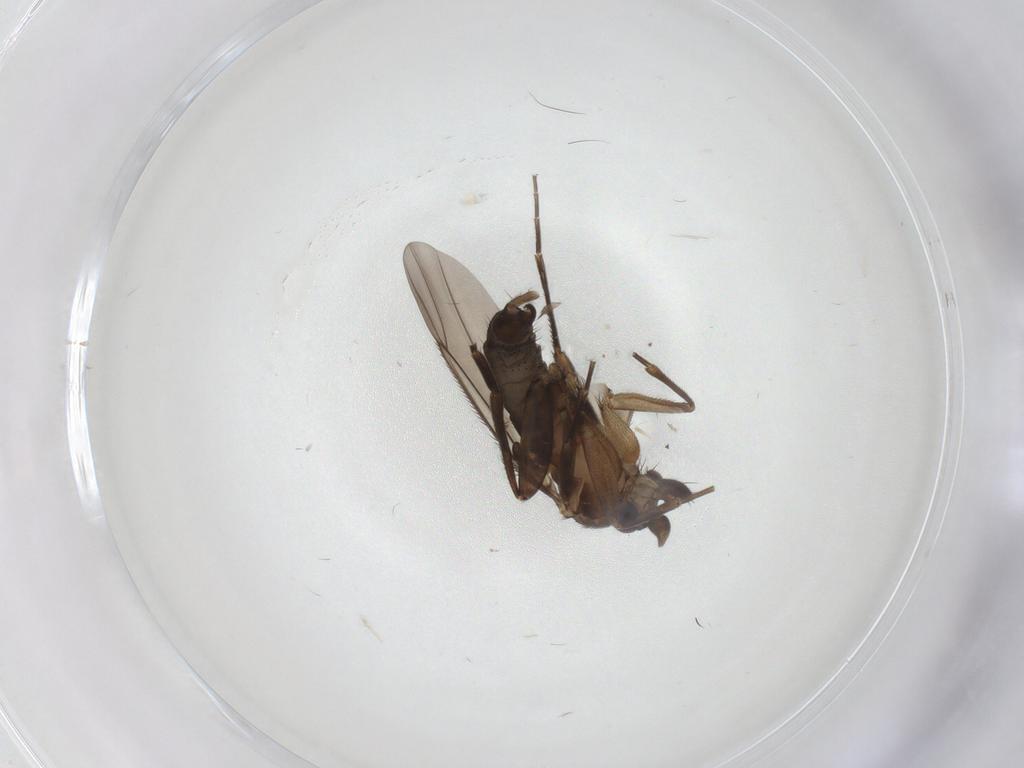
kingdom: Animalia
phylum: Arthropoda
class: Insecta
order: Diptera
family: Phoridae
